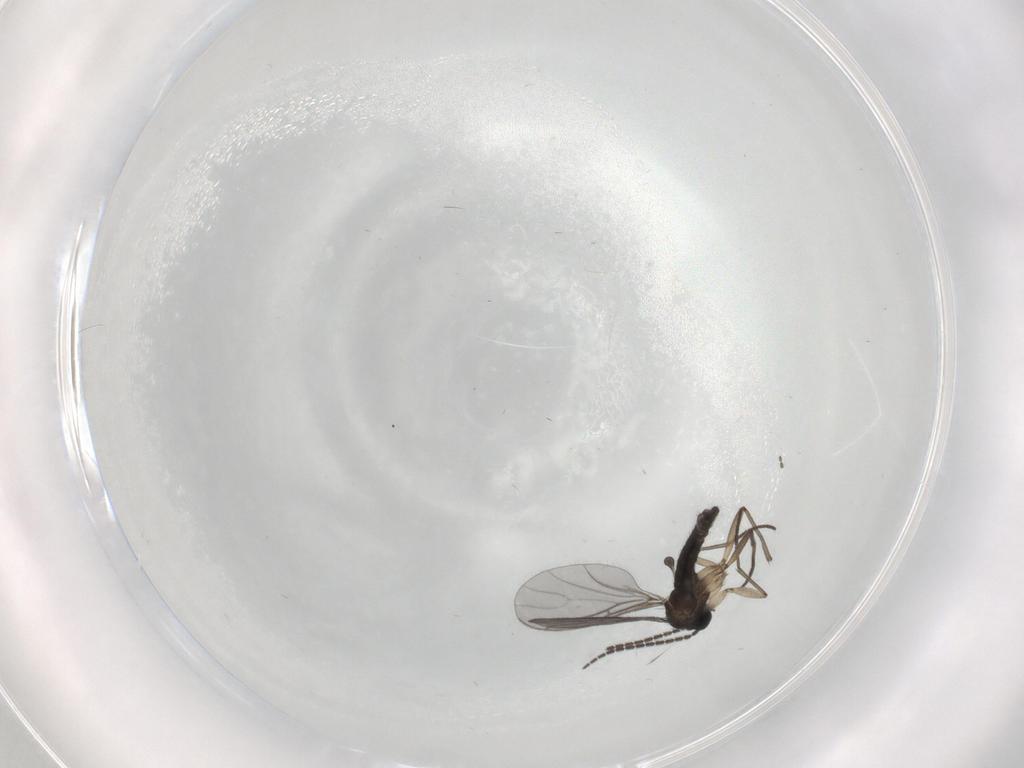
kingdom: Animalia
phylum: Arthropoda
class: Insecta
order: Diptera
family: Sciaridae
